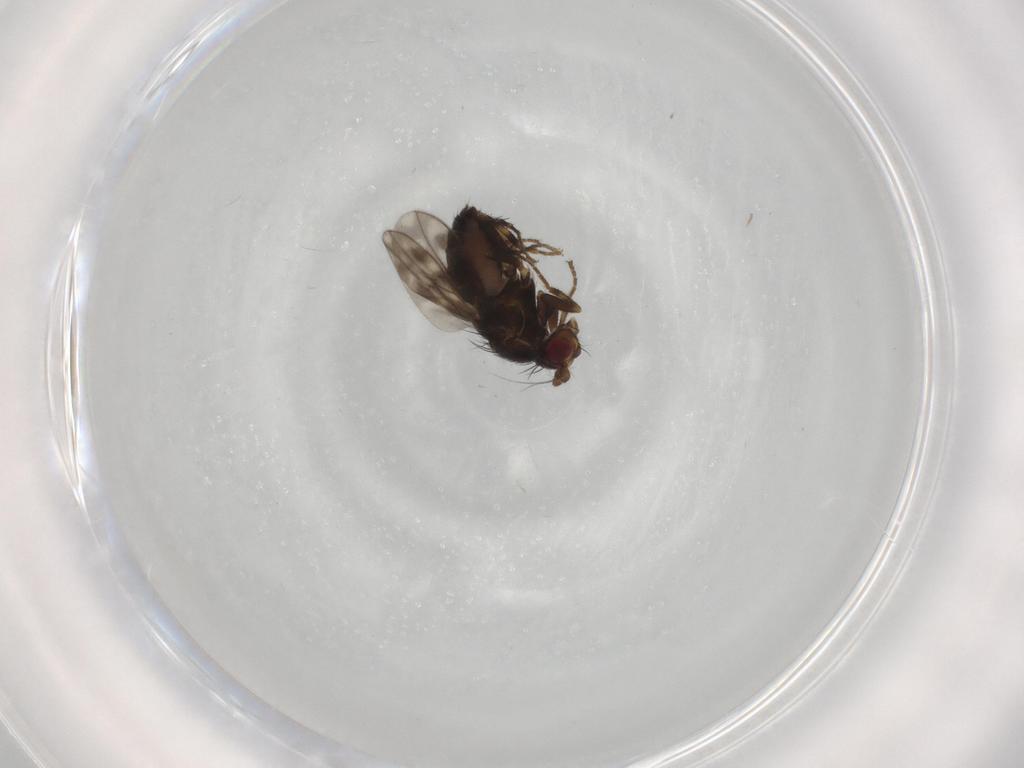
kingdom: Animalia
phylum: Arthropoda
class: Insecta
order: Diptera
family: Sphaeroceridae
